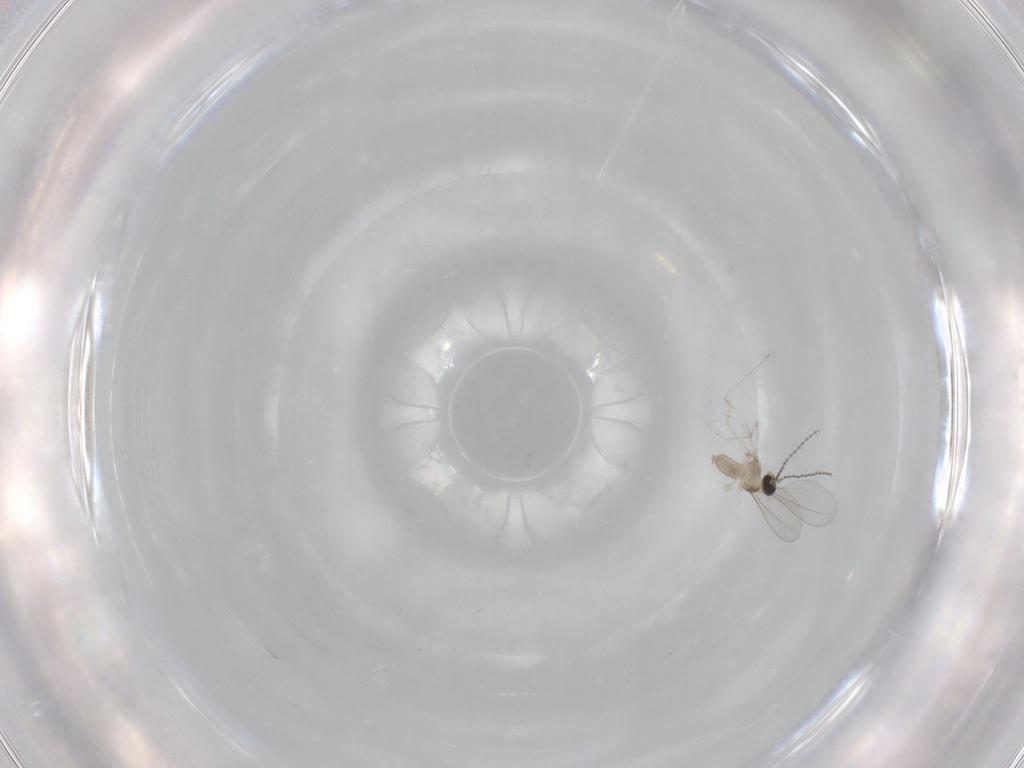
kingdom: Animalia
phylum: Arthropoda
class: Insecta
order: Diptera
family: Cecidomyiidae
